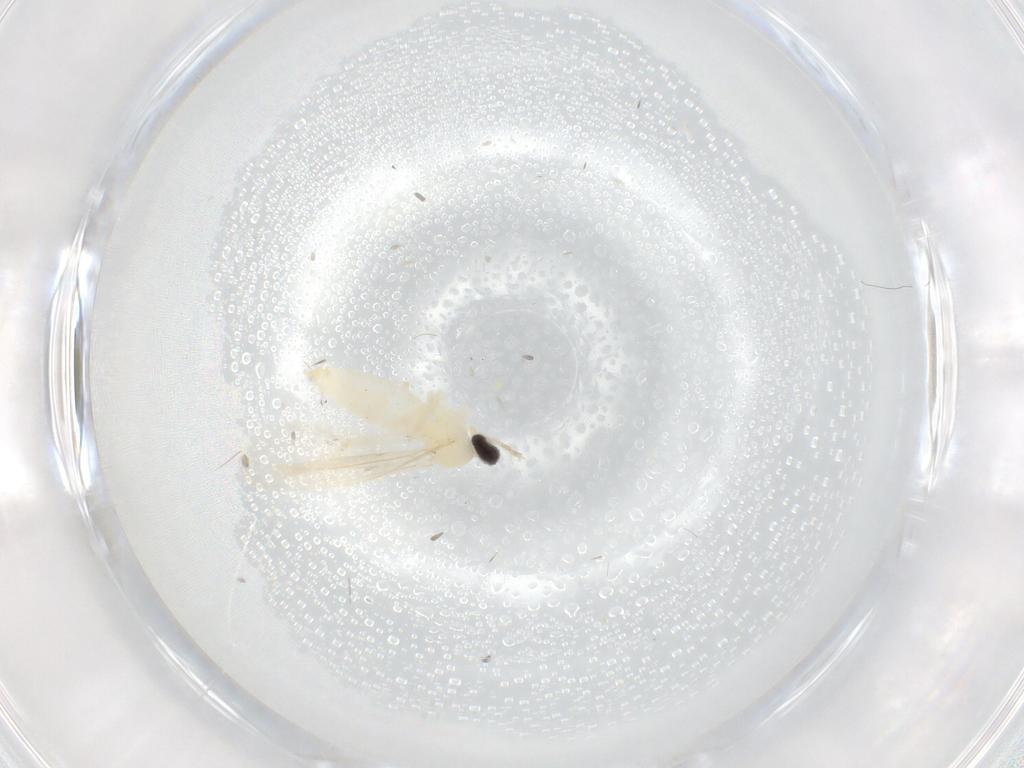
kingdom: Animalia
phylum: Arthropoda
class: Insecta
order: Diptera
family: Cecidomyiidae
